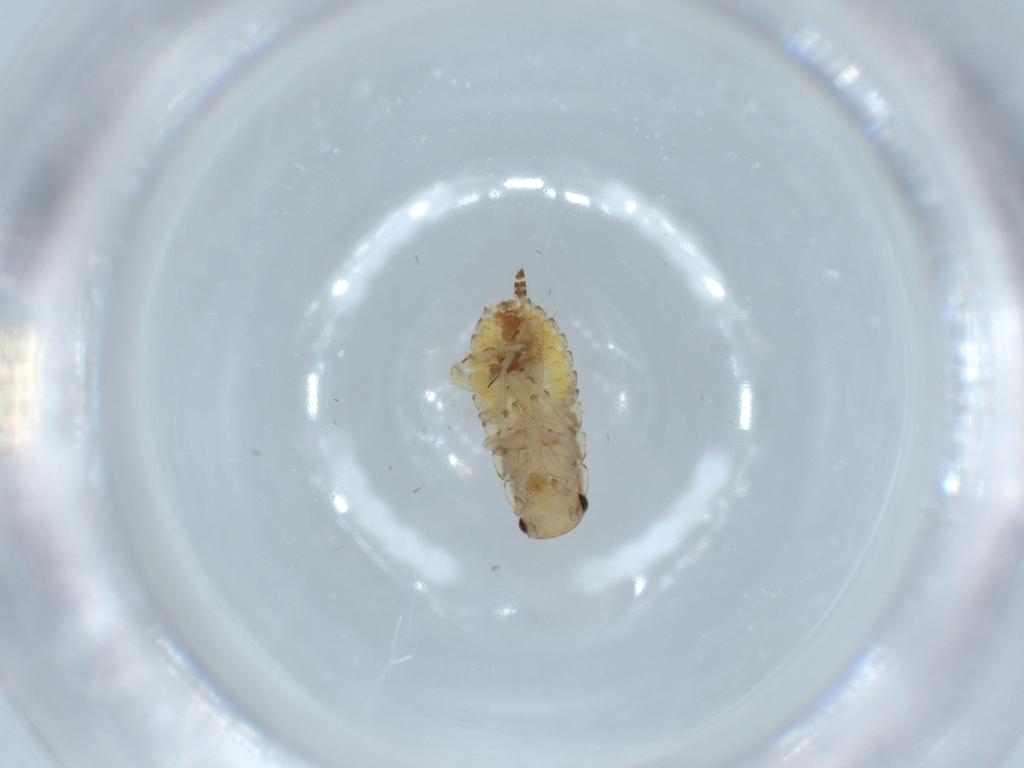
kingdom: Animalia
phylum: Arthropoda
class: Insecta
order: Blattodea
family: Ectobiidae
